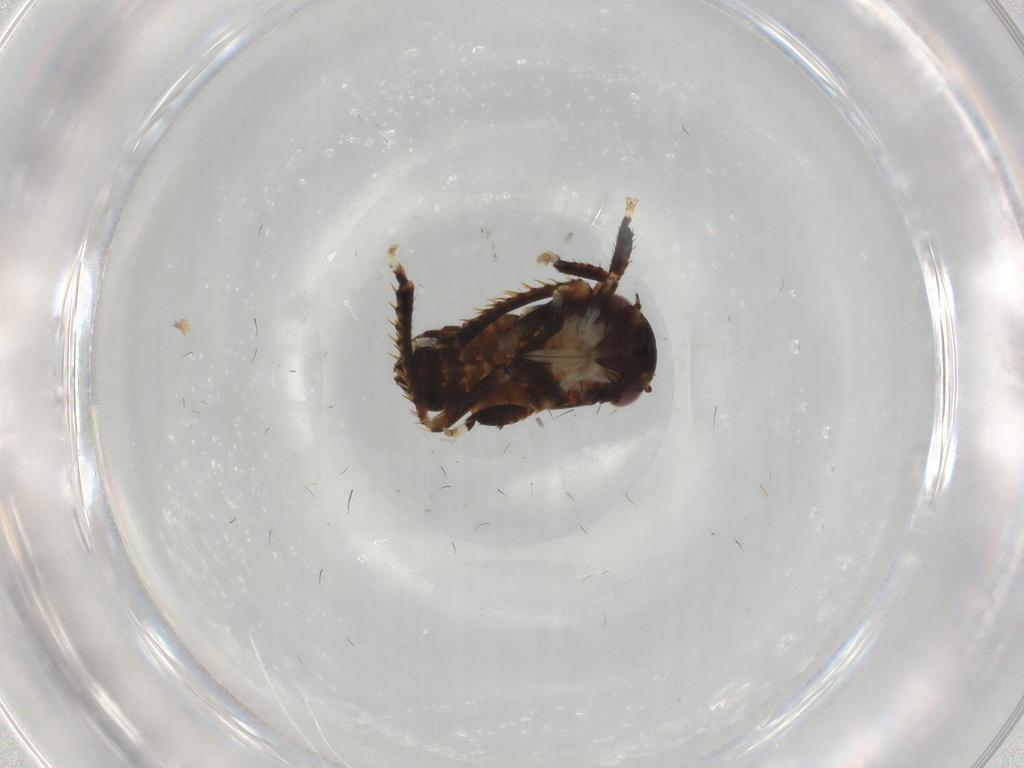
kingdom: Animalia
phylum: Arthropoda
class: Insecta
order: Hemiptera
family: Cicadellidae
